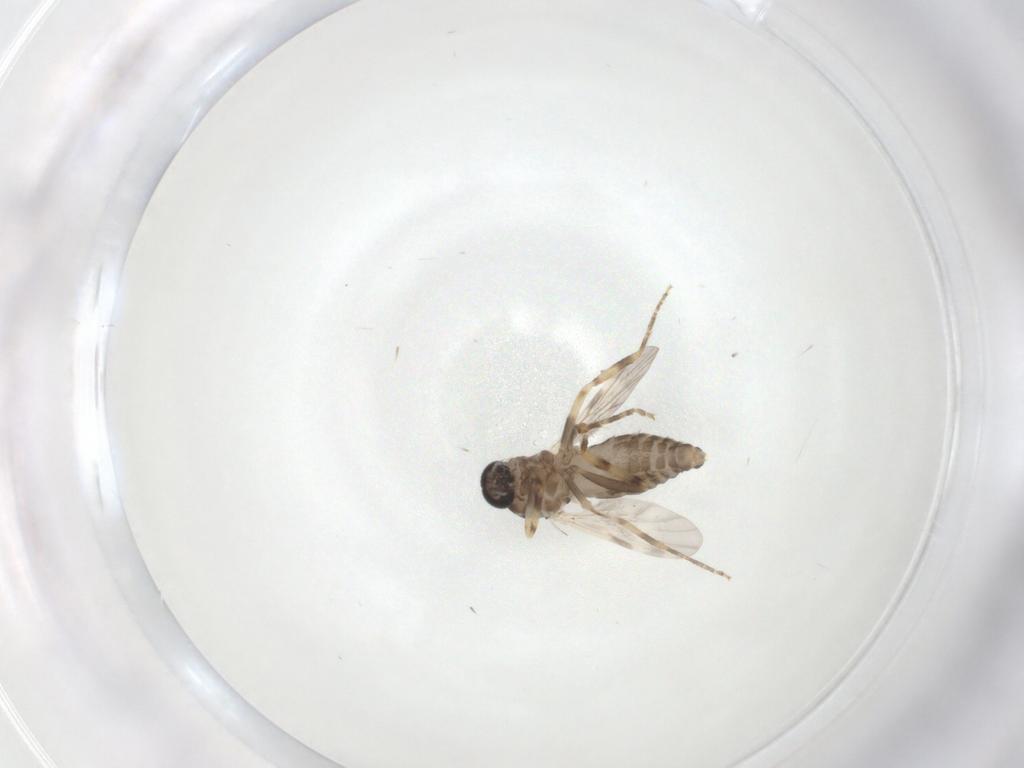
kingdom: Animalia
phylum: Arthropoda
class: Insecta
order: Diptera
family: Ceratopogonidae
